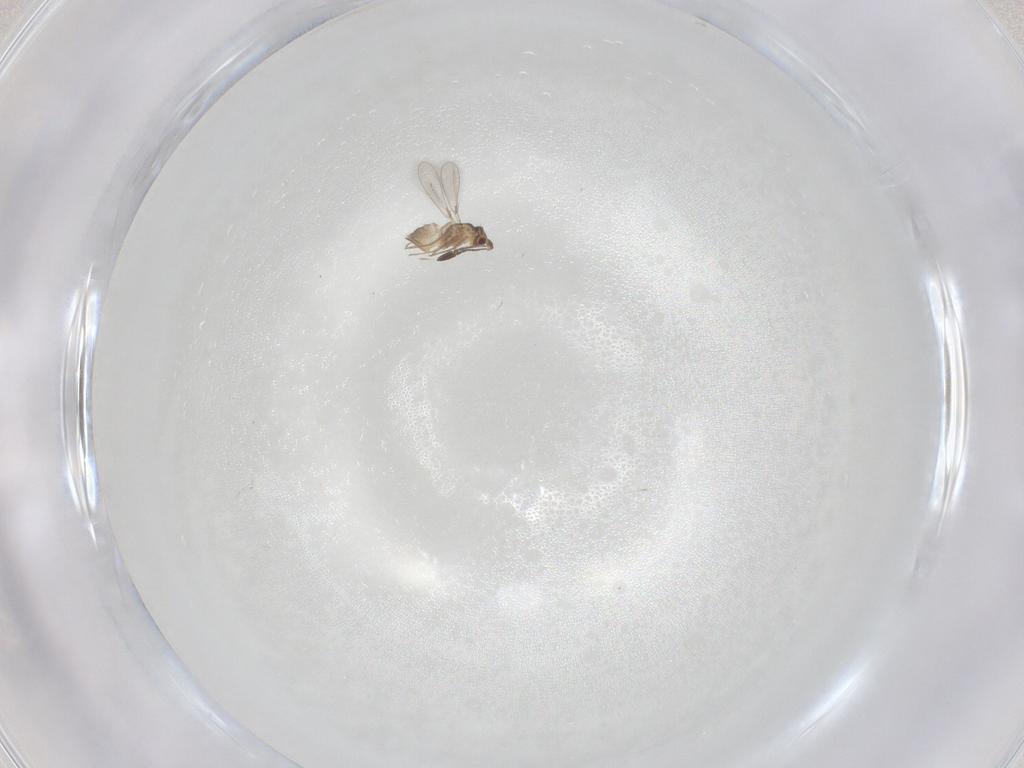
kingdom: Animalia
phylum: Arthropoda
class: Insecta
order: Hymenoptera
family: Mymaridae
